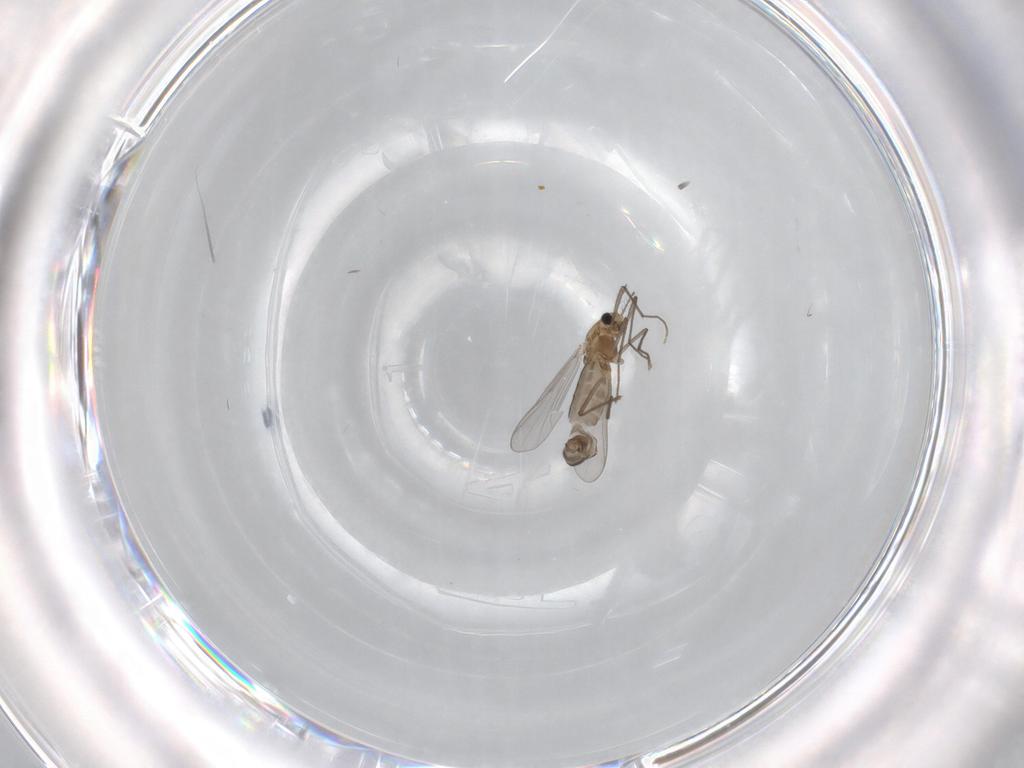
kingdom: Animalia
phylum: Arthropoda
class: Insecta
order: Diptera
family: Chironomidae
